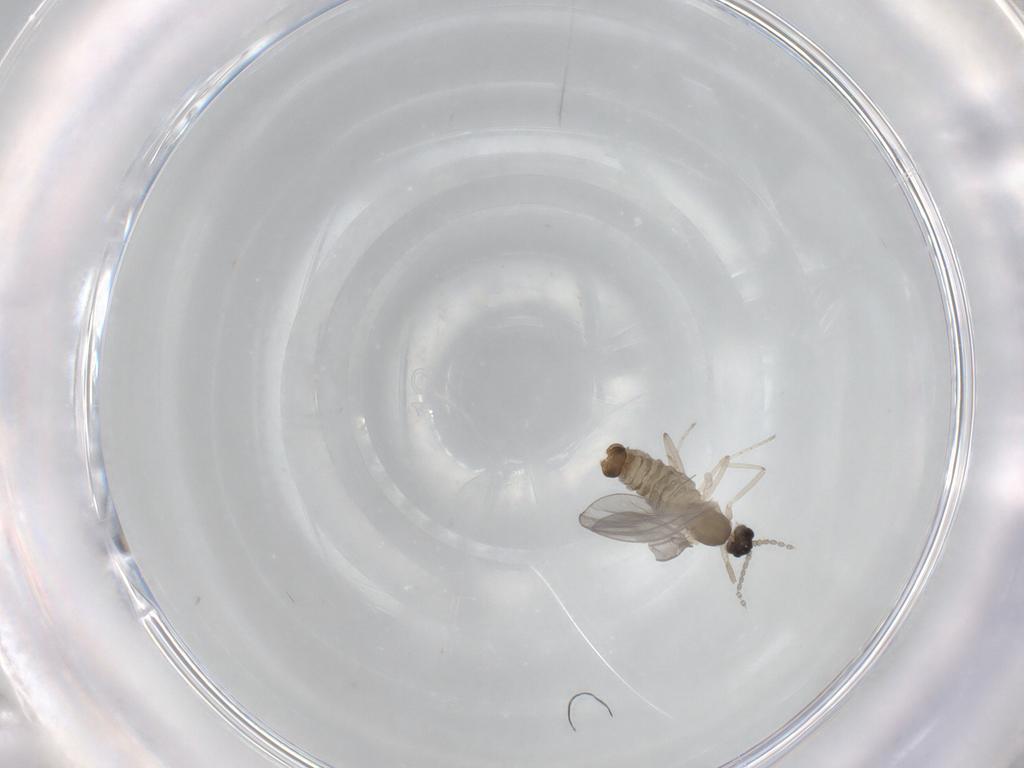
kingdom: Animalia
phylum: Arthropoda
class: Insecta
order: Diptera
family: Cecidomyiidae
